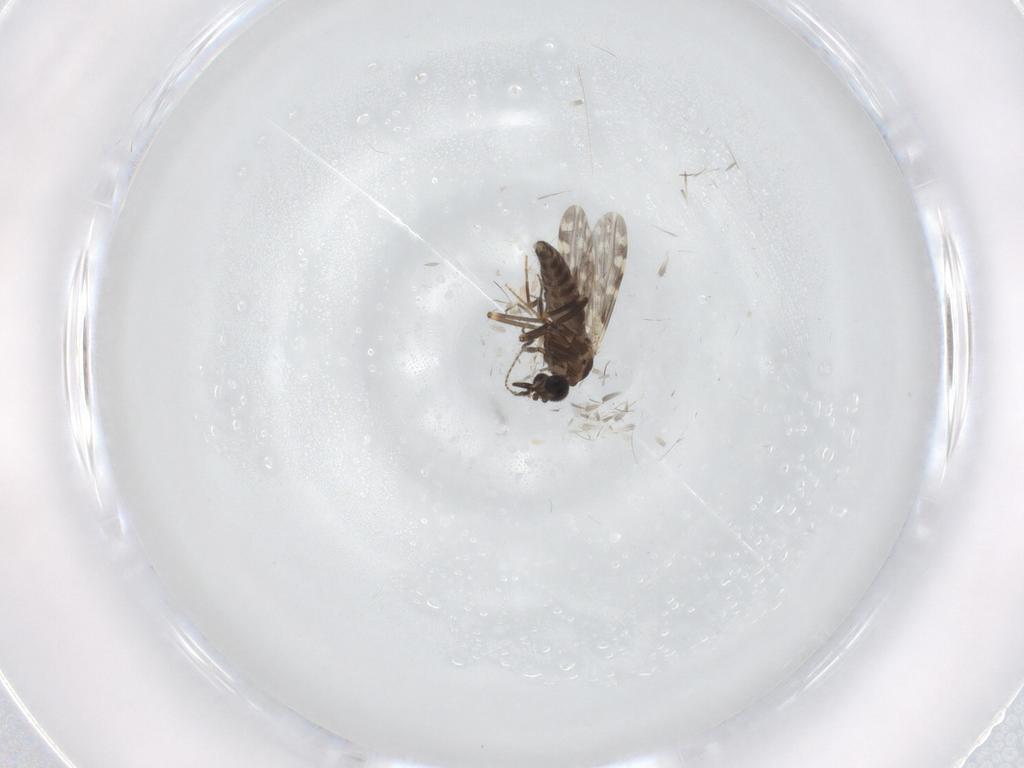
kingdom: Animalia
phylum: Arthropoda
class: Insecta
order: Diptera
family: Ceratopogonidae
